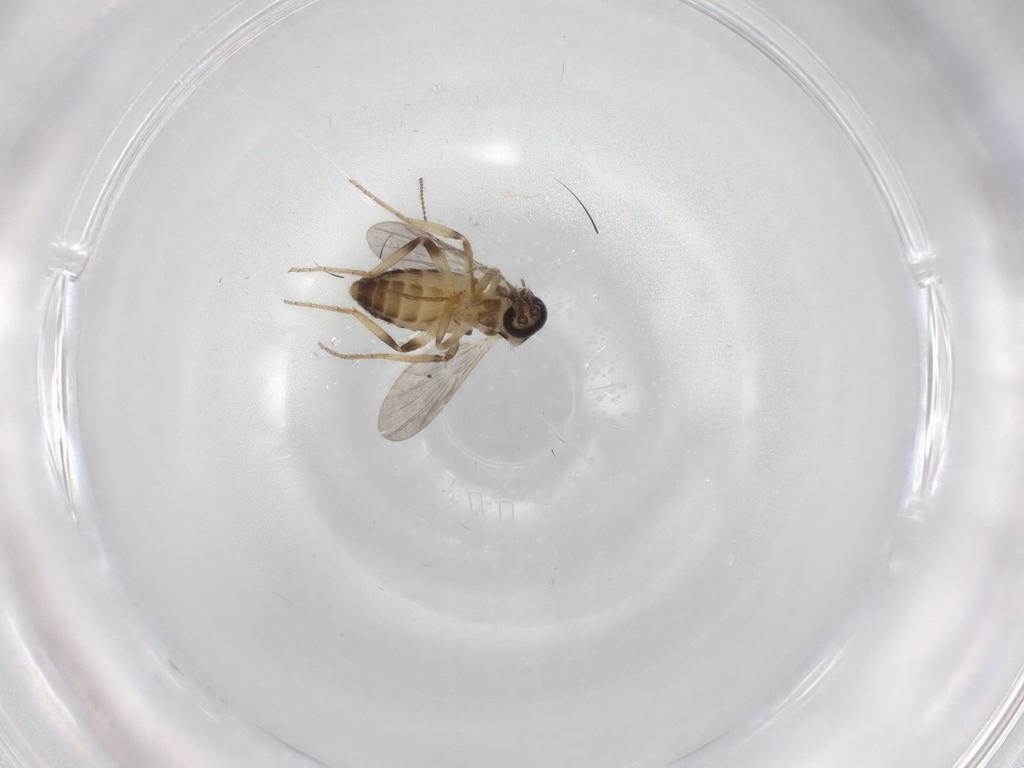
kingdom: Animalia
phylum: Arthropoda
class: Insecta
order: Diptera
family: Ceratopogonidae
